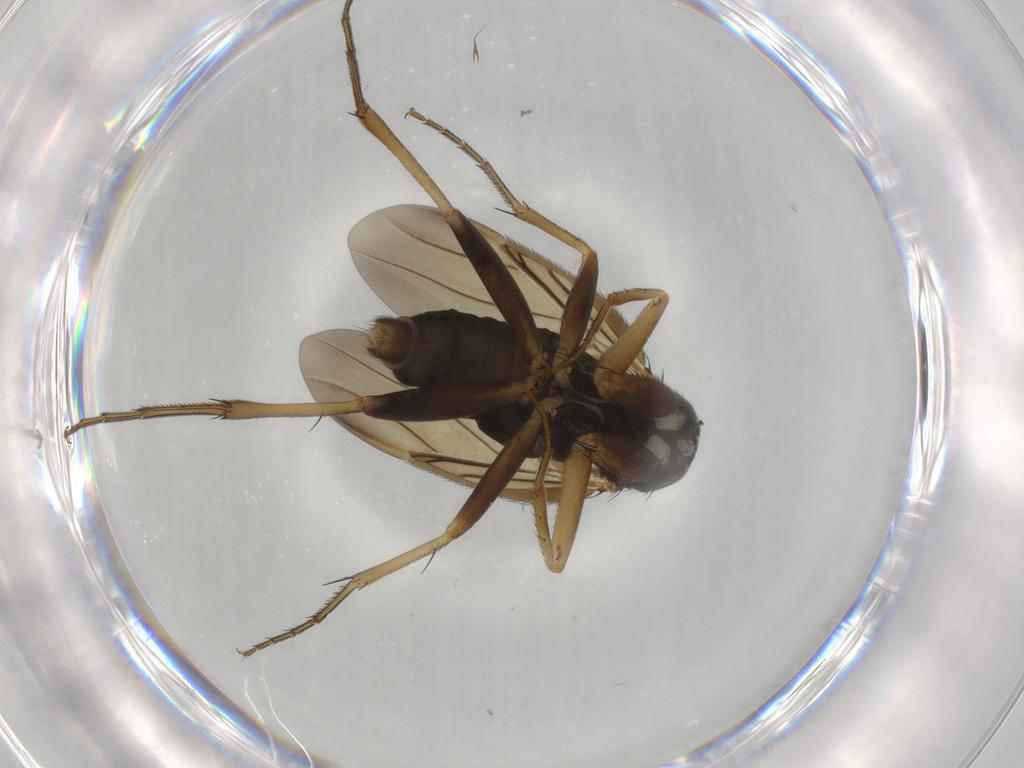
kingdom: Animalia
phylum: Arthropoda
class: Insecta
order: Diptera
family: Phoridae
